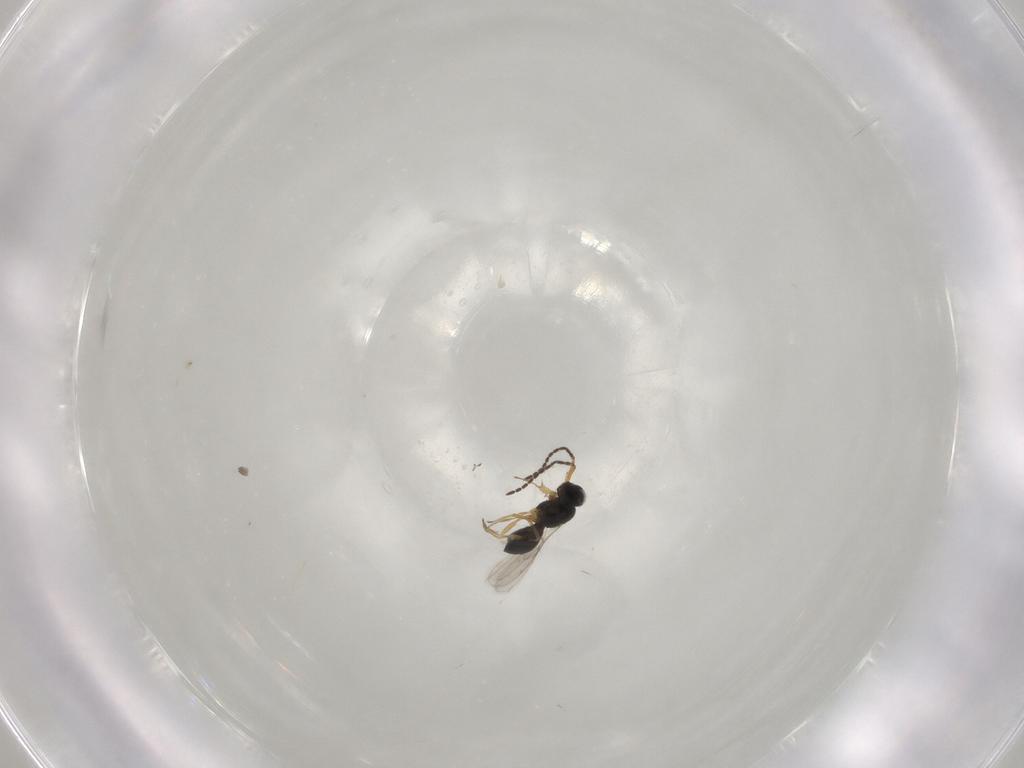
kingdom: Animalia
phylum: Arthropoda
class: Insecta
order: Hymenoptera
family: Scelionidae
